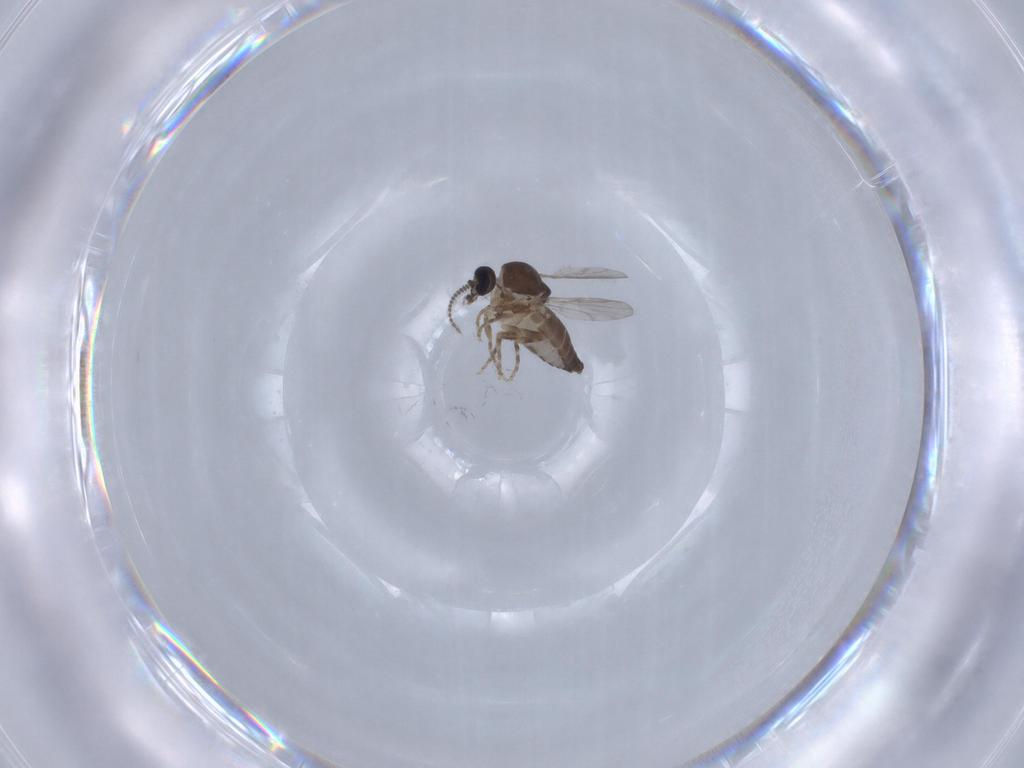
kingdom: Animalia
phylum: Arthropoda
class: Insecta
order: Diptera
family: Ceratopogonidae
